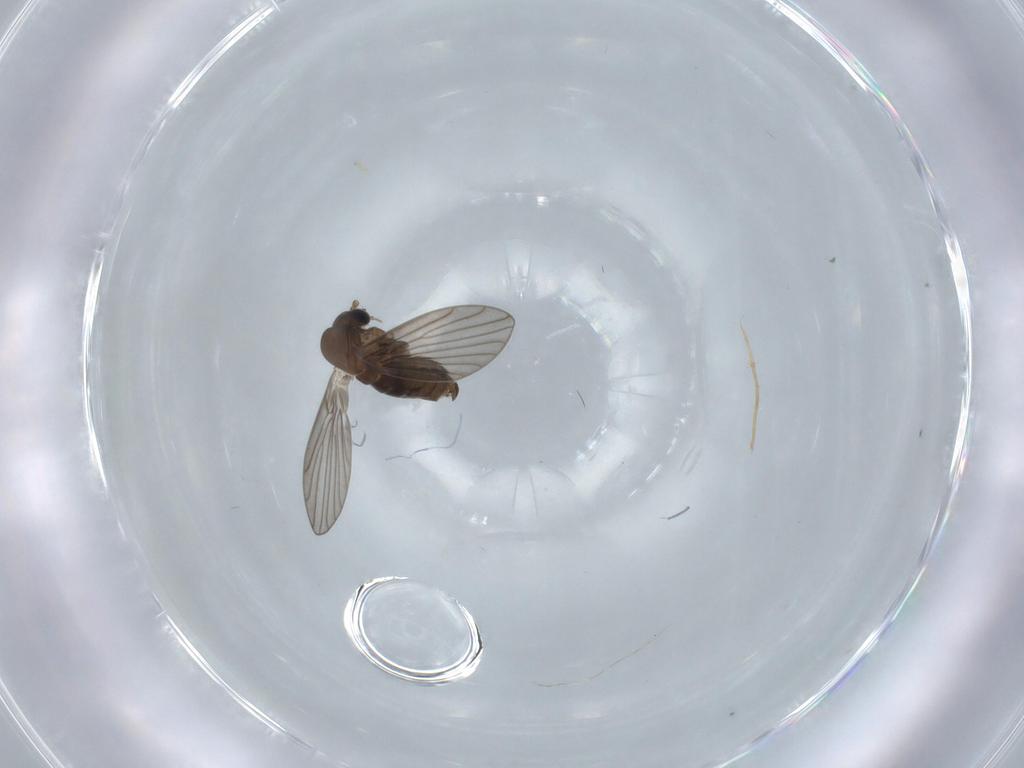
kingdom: Animalia
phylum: Arthropoda
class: Insecta
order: Diptera
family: Psychodidae
